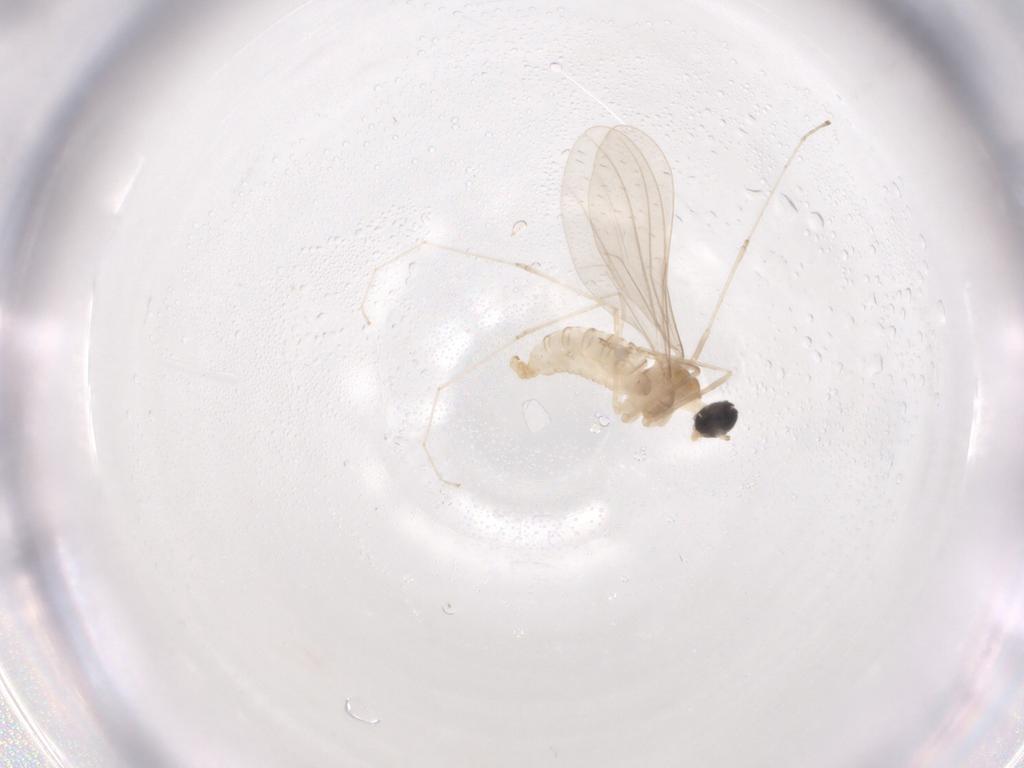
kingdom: Animalia
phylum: Arthropoda
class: Insecta
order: Diptera
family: Cecidomyiidae
